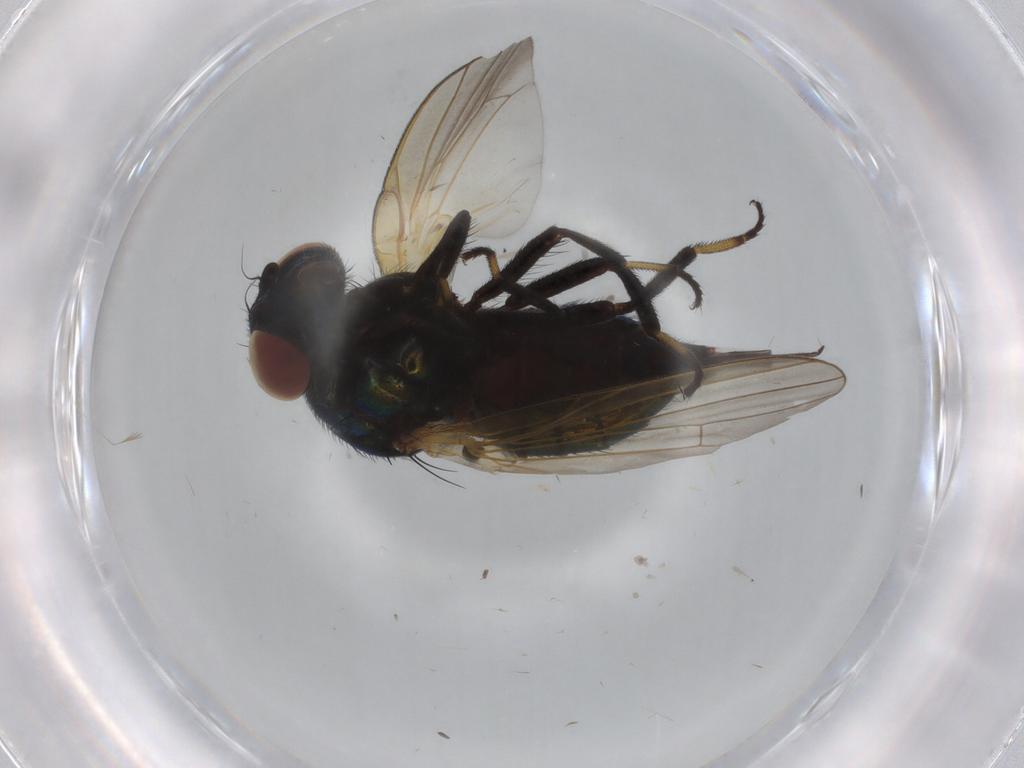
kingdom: Animalia
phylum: Arthropoda
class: Insecta
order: Diptera
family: Lonchaeidae
